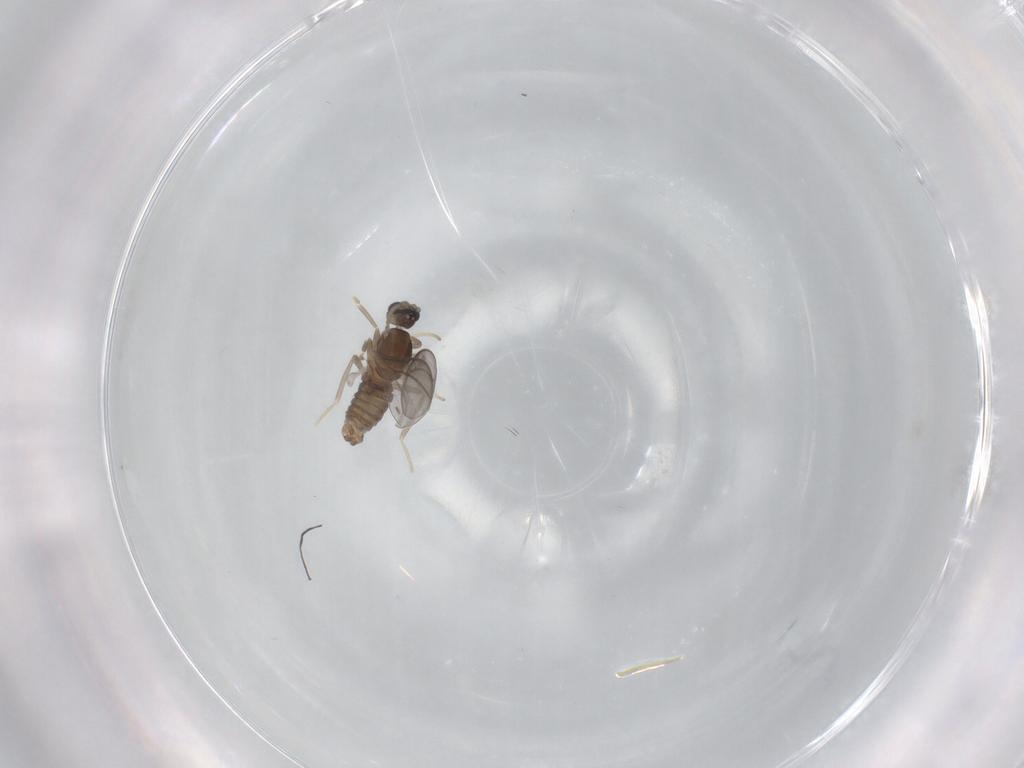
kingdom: Animalia
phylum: Arthropoda
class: Insecta
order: Diptera
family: Cecidomyiidae
